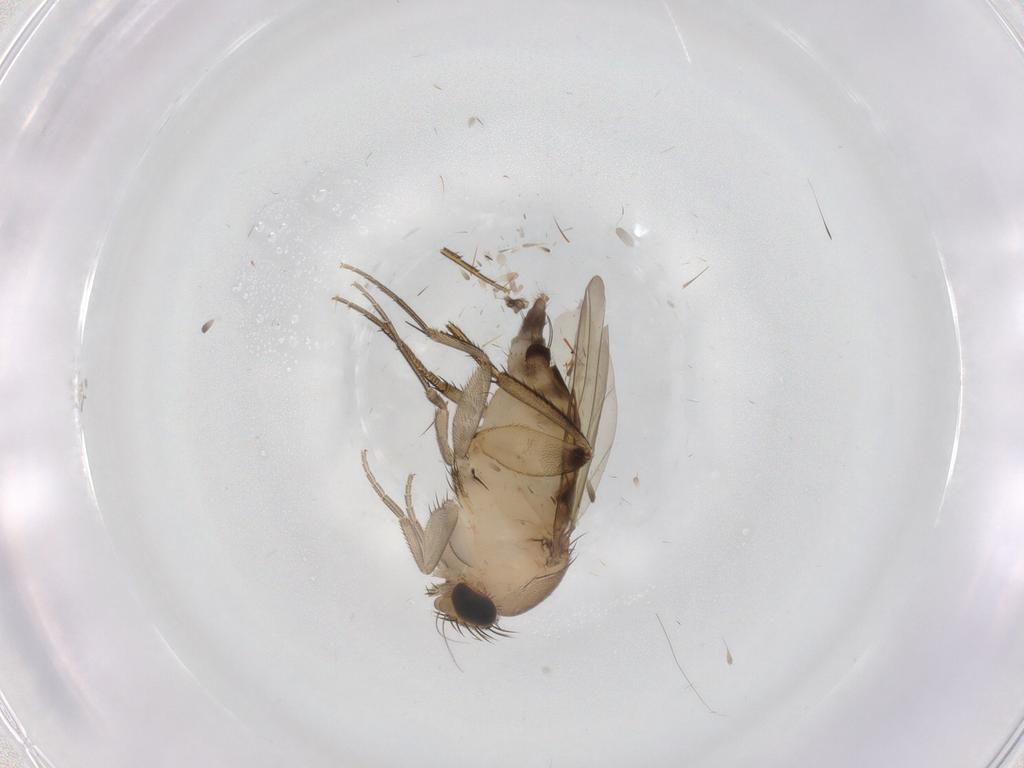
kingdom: Animalia
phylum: Arthropoda
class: Insecta
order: Diptera
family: Phoridae
